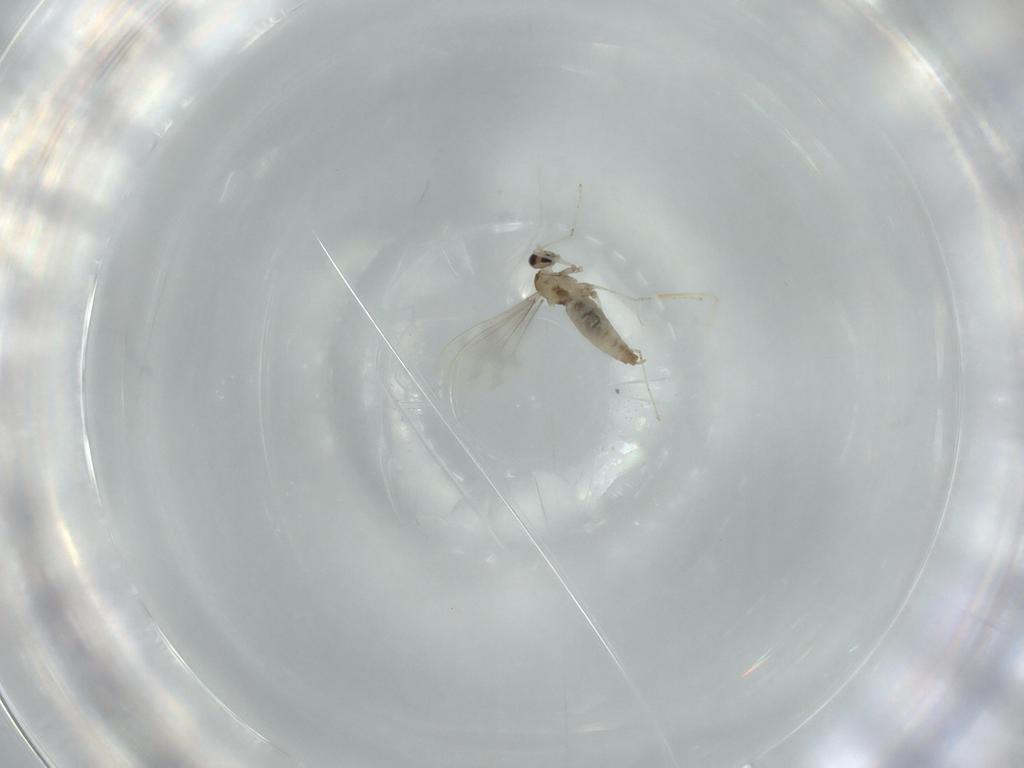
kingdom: Animalia
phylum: Arthropoda
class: Insecta
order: Diptera
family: Cecidomyiidae
